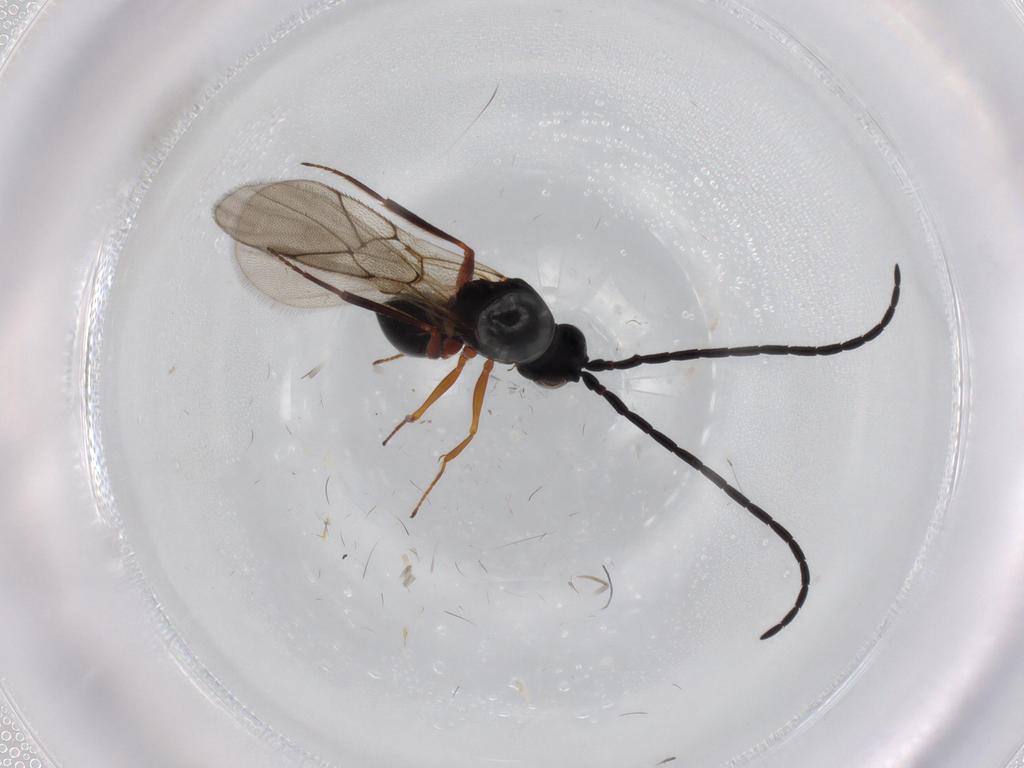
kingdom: Animalia
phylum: Arthropoda
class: Insecta
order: Hymenoptera
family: Figitidae
